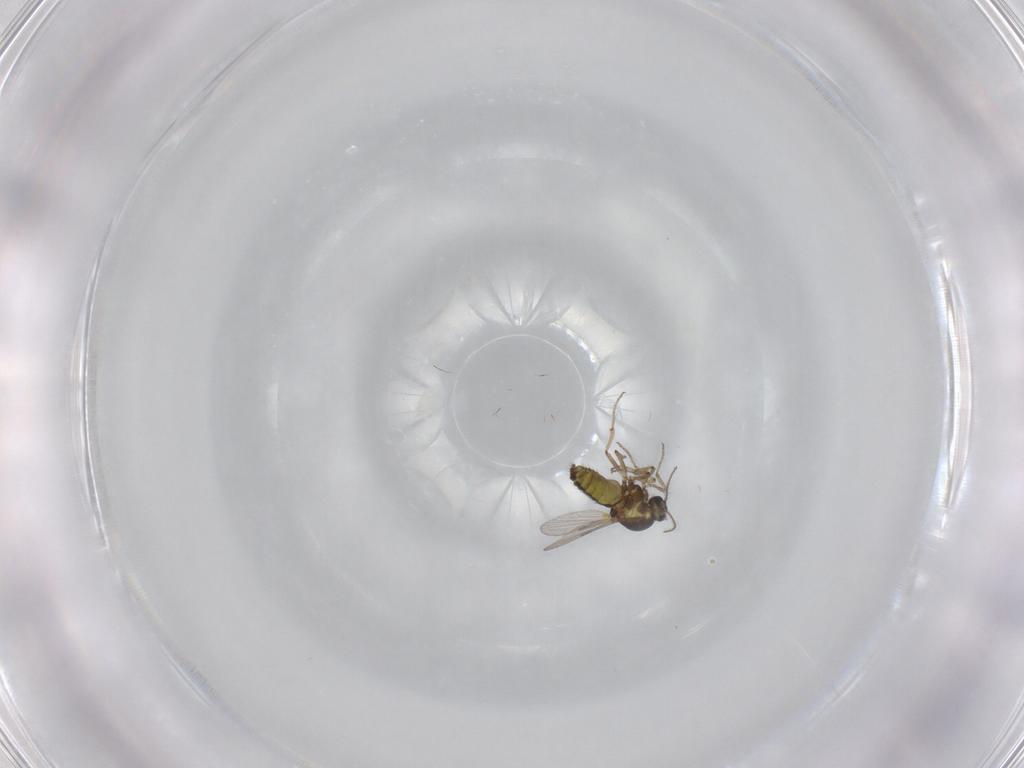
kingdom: Animalia
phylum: Arthropoda
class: Insecta
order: Diptera
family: Ceratopogonidae
